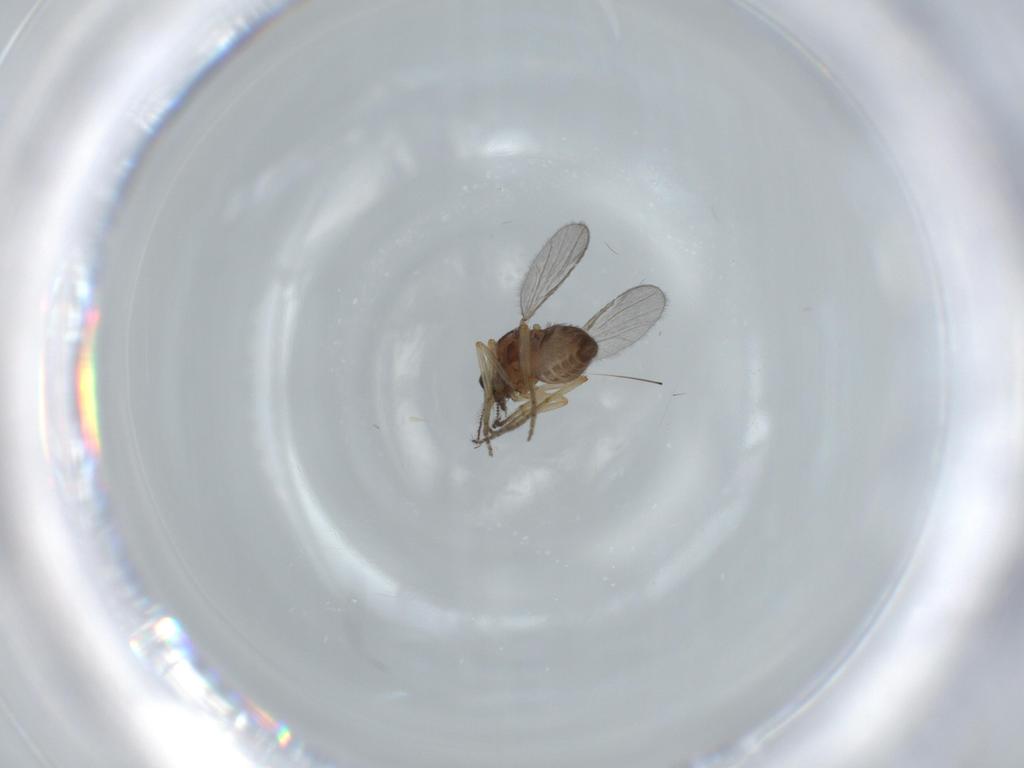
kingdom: Animalia
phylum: Arthropoda
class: Insecta
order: Diptera
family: Ceratopogonidae
